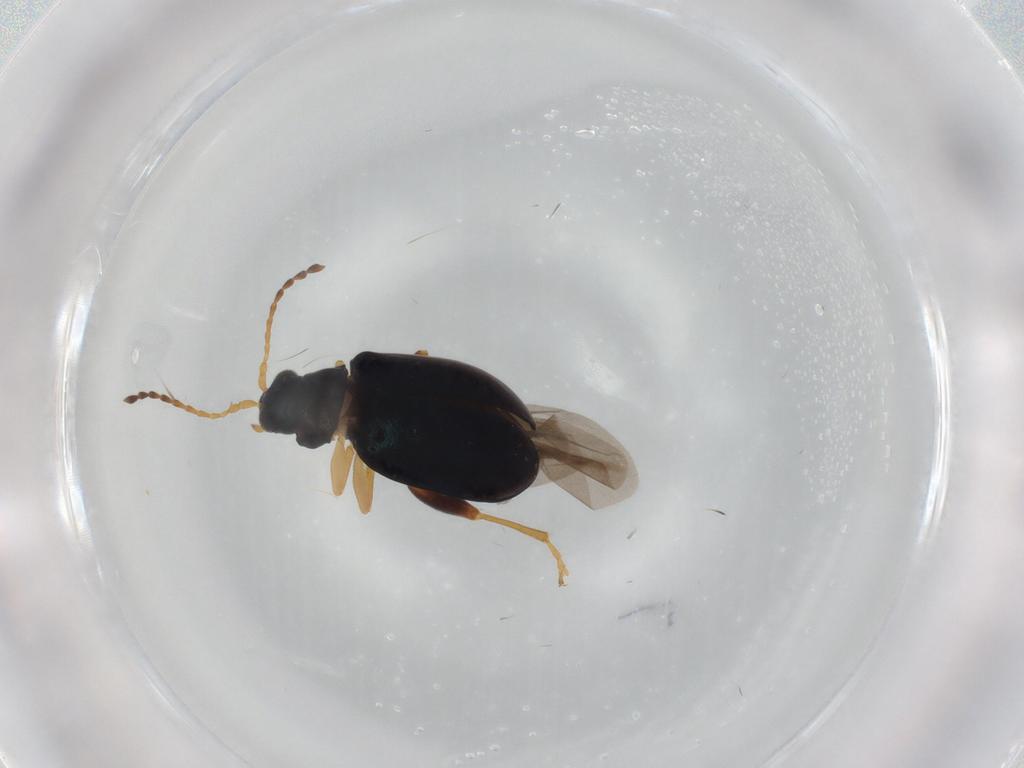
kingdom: Animalia
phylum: Arthropoda
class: Insecta
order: Coleoptera
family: Chrysomelidae
